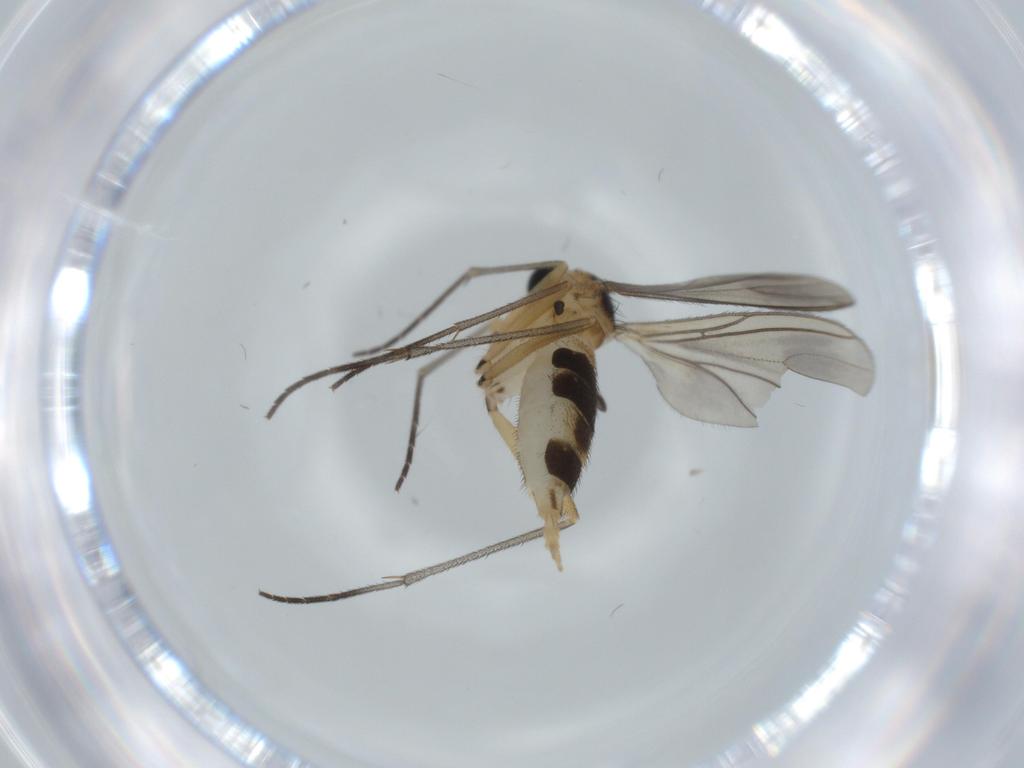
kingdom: Animalia
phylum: Arthropoda
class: Insecta
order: Diptera
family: Sciaridae
